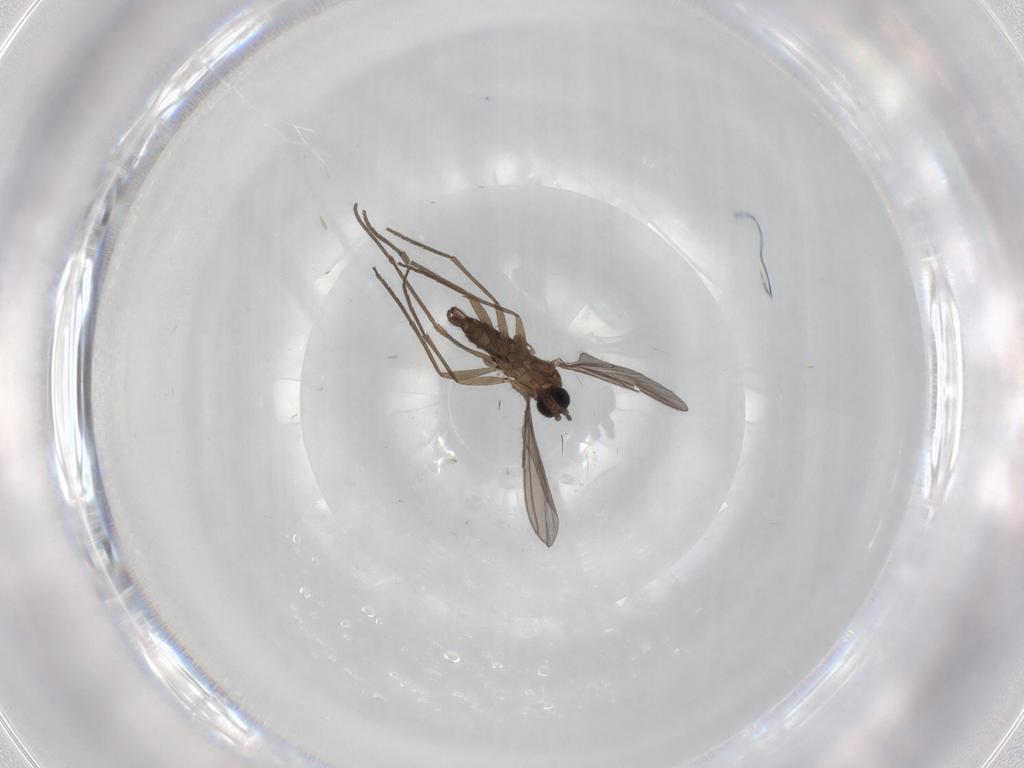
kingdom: Animalia
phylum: Arthropoda
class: Insecta
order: Diptera
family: Sciaridae
